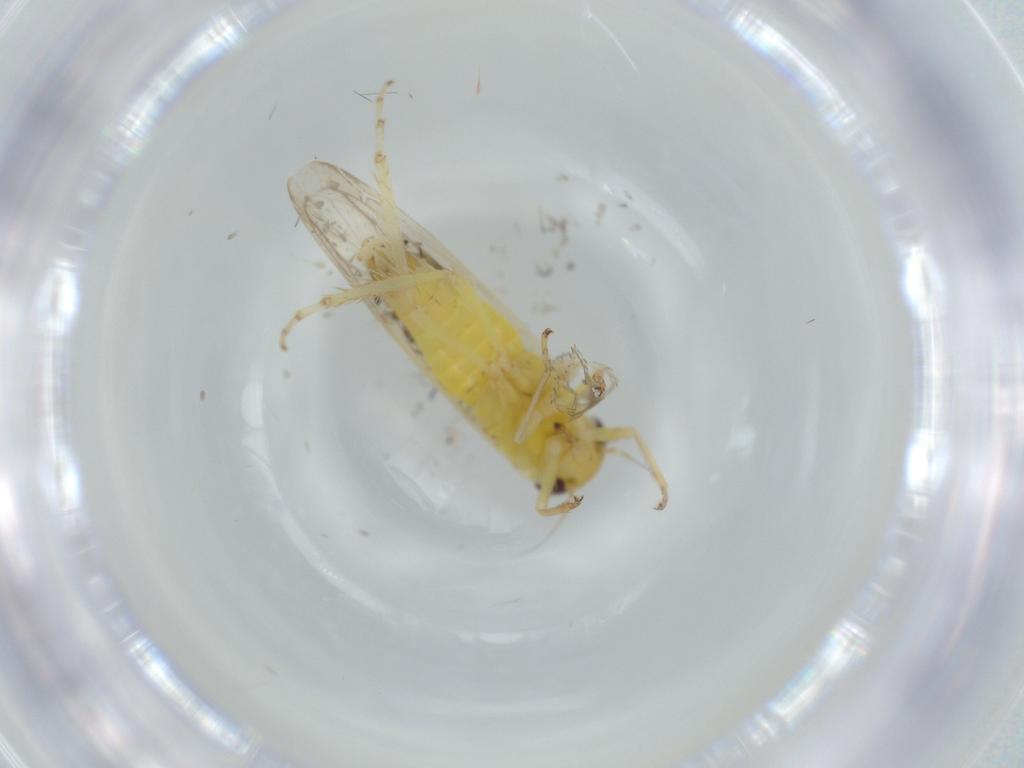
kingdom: Animalia
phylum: Arthropoda
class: Insecta
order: Hemiptera
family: Cicadellidae
